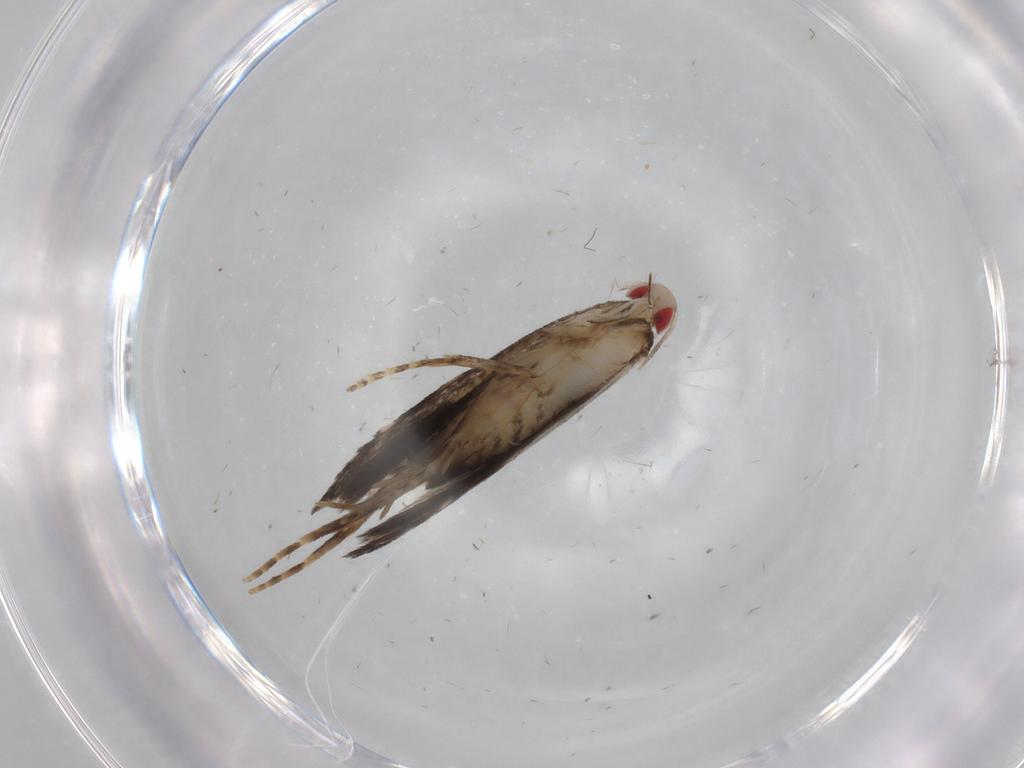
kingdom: Animalia
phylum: Arthropoda
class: Insecta
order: Lepidoptera
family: Gelechiidae
